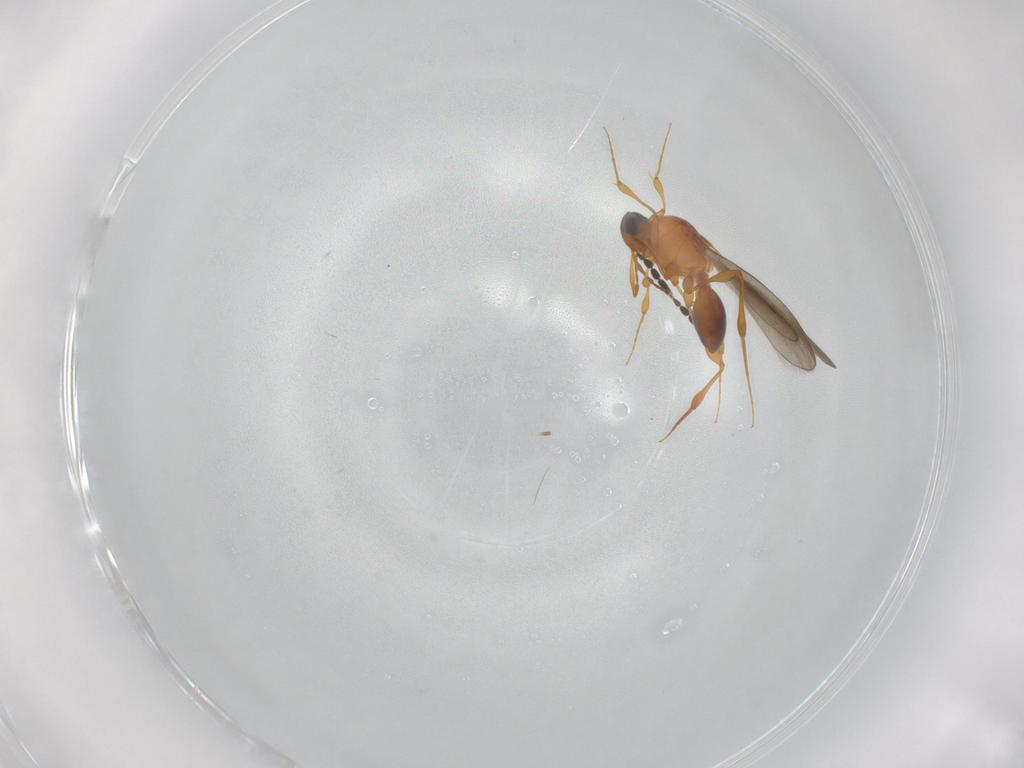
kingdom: Animalia
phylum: Arthropoda
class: Insecta
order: Hymenoptera
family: Platygastridae
